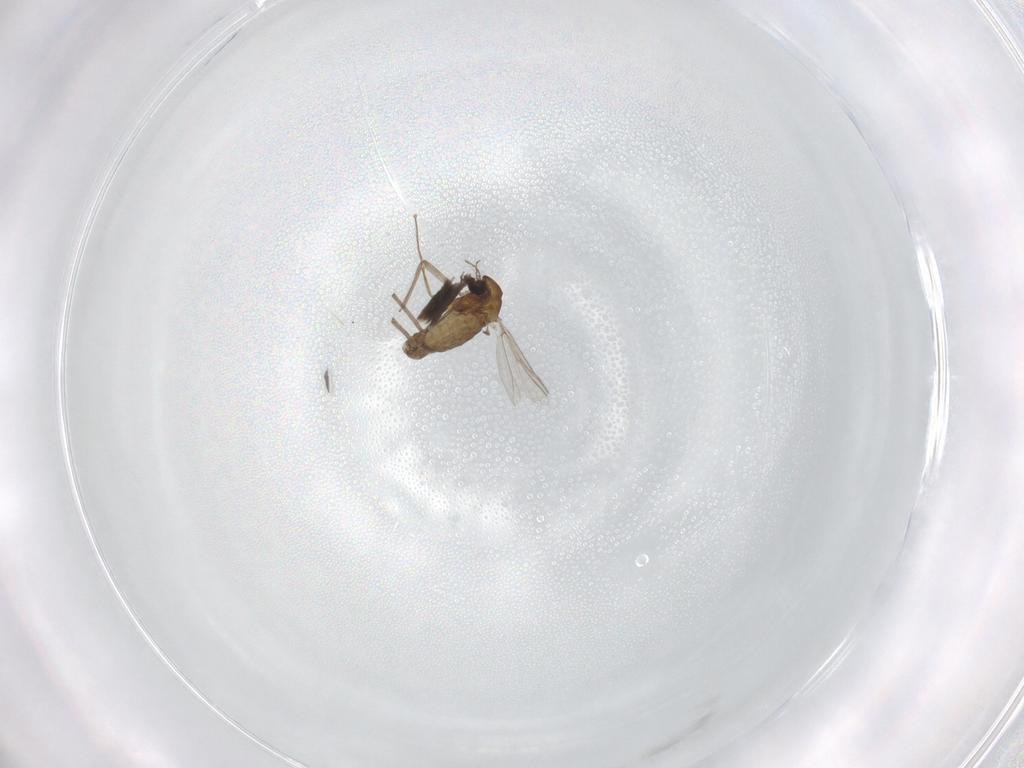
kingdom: Animalia
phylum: Arthropoda
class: Insecta
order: Diptera
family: Chironomidae
